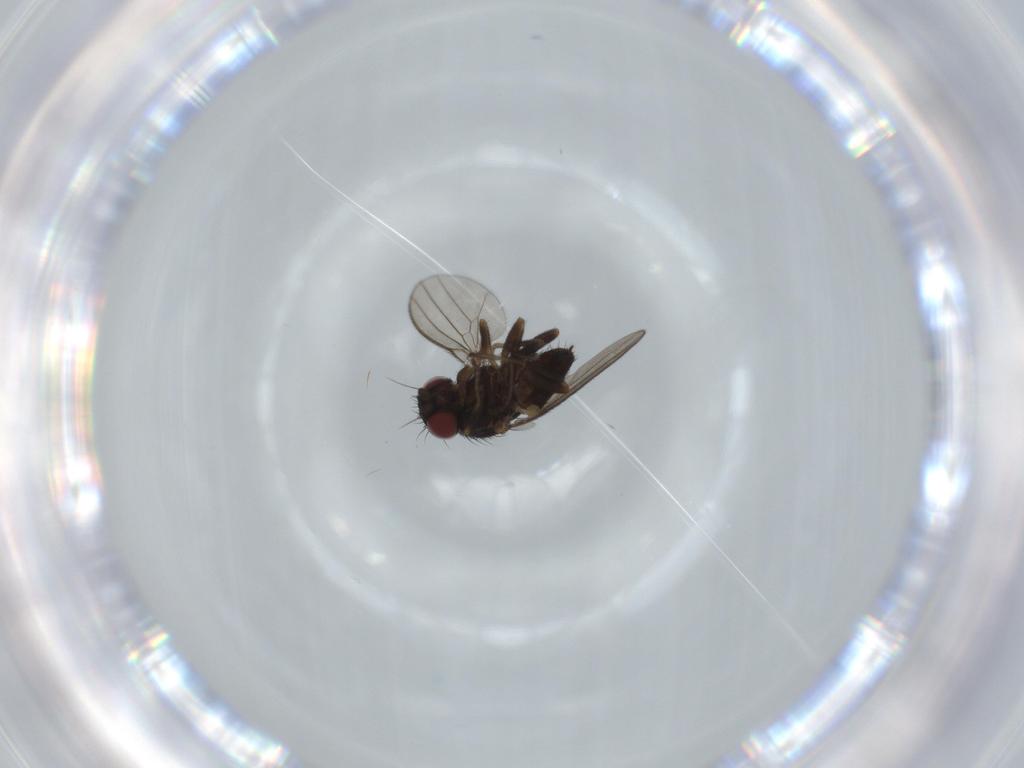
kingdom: Animalia
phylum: Arthropoda
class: Insecta
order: Diptera
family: Milichiidae
